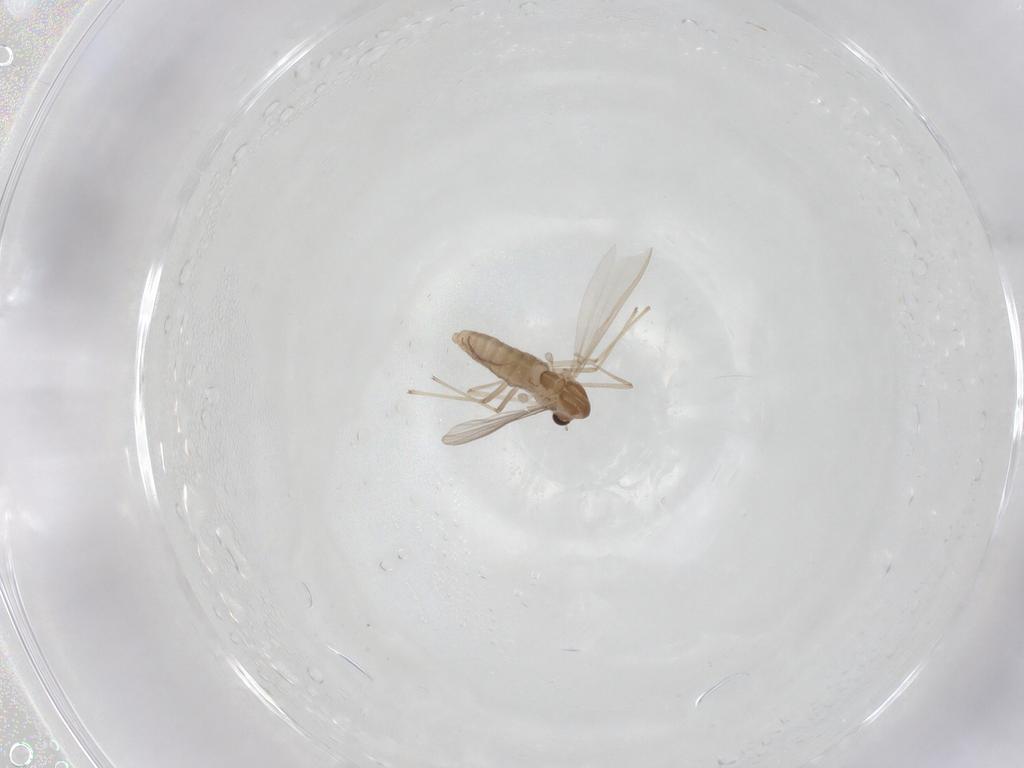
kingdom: Animalia
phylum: Arthropoda
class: Insecta
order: Diptera
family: Chironomidae
